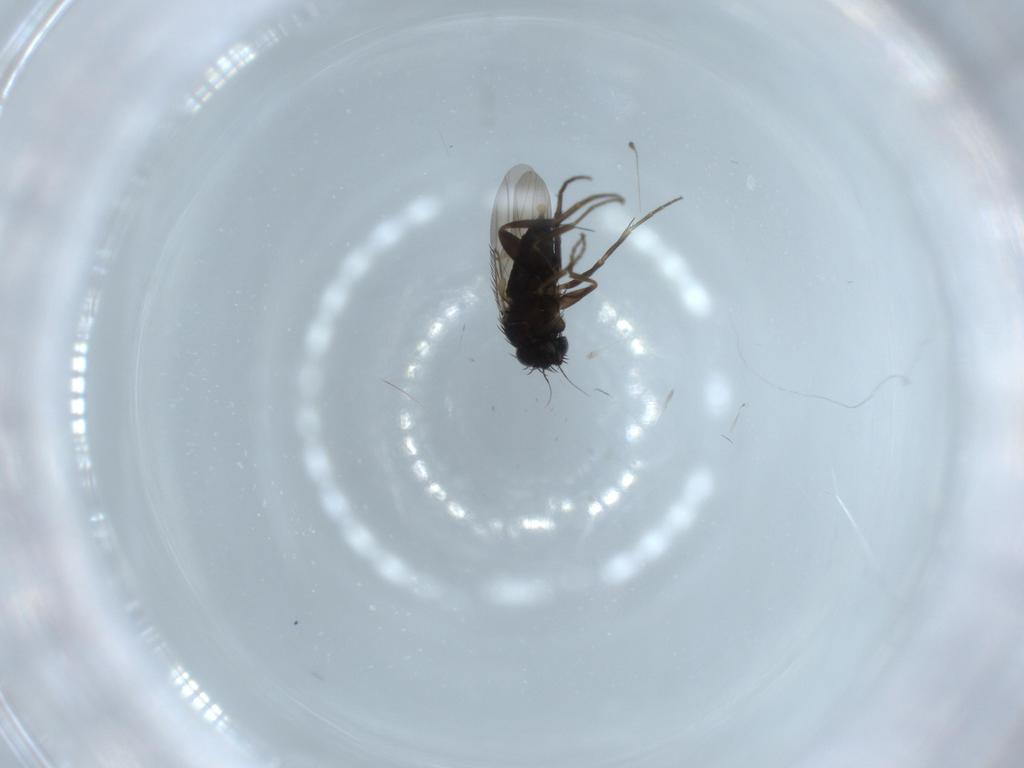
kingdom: Animalia
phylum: Arthropoda
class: Insecta
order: Diptera
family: Phoridae
